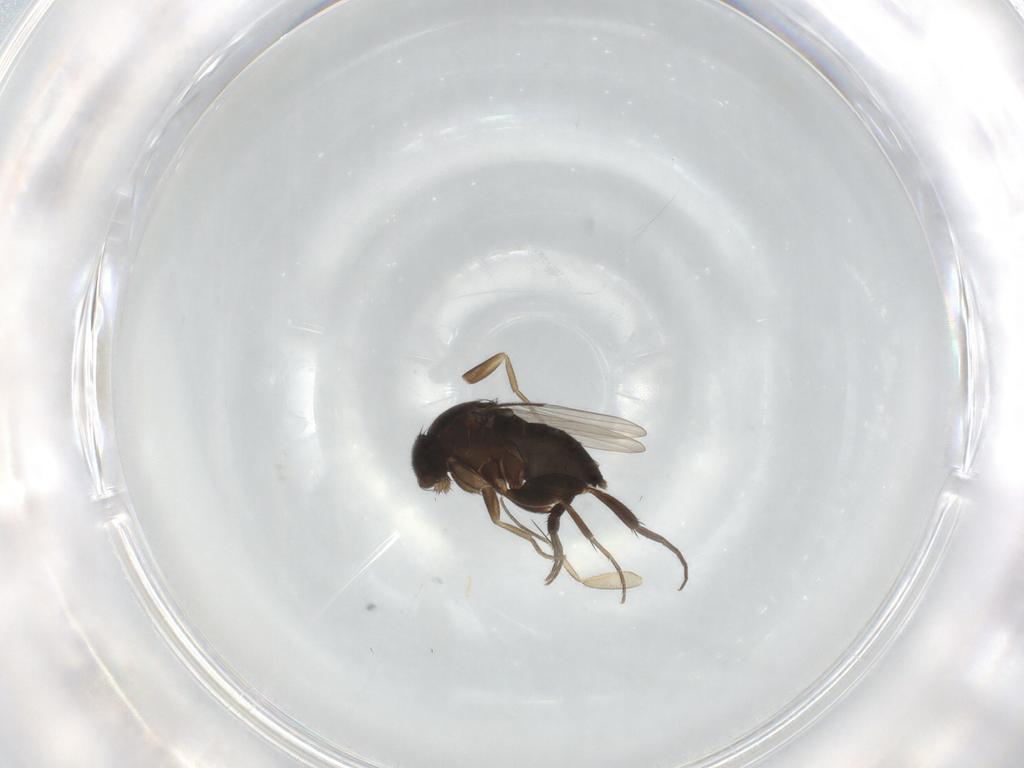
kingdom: Animalia
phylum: Arthropoda
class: Insecta
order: Diptera
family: Phoridae
